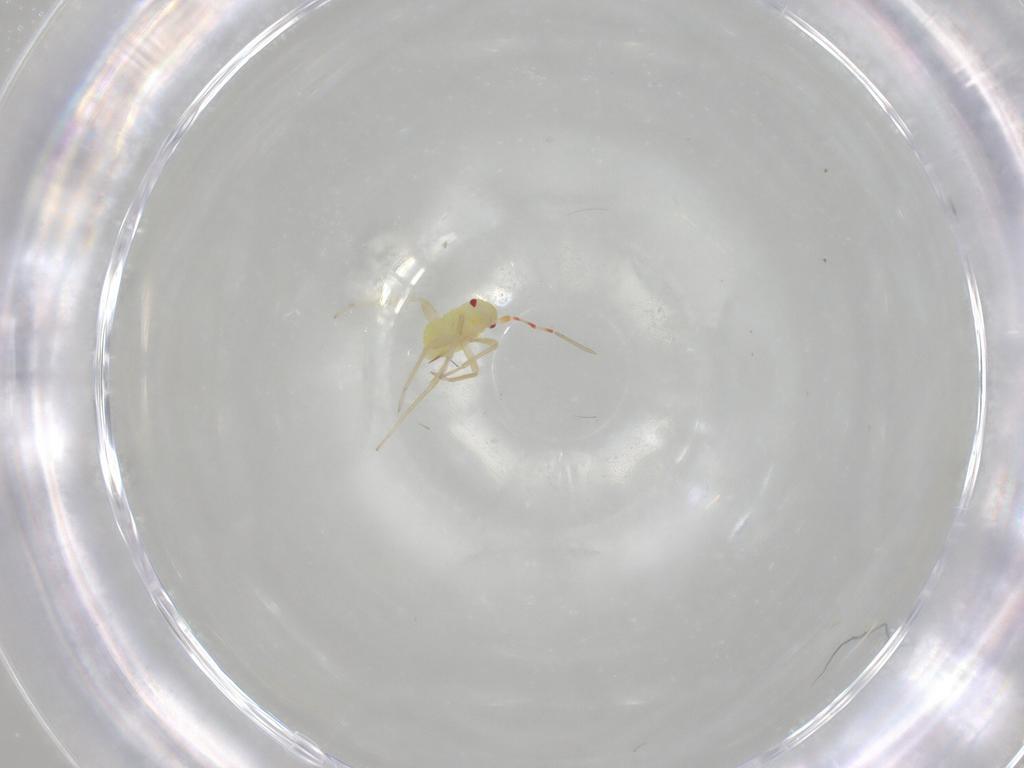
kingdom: Animalia
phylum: Arthropoda
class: Insecta
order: Hemiptera
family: Miridae
